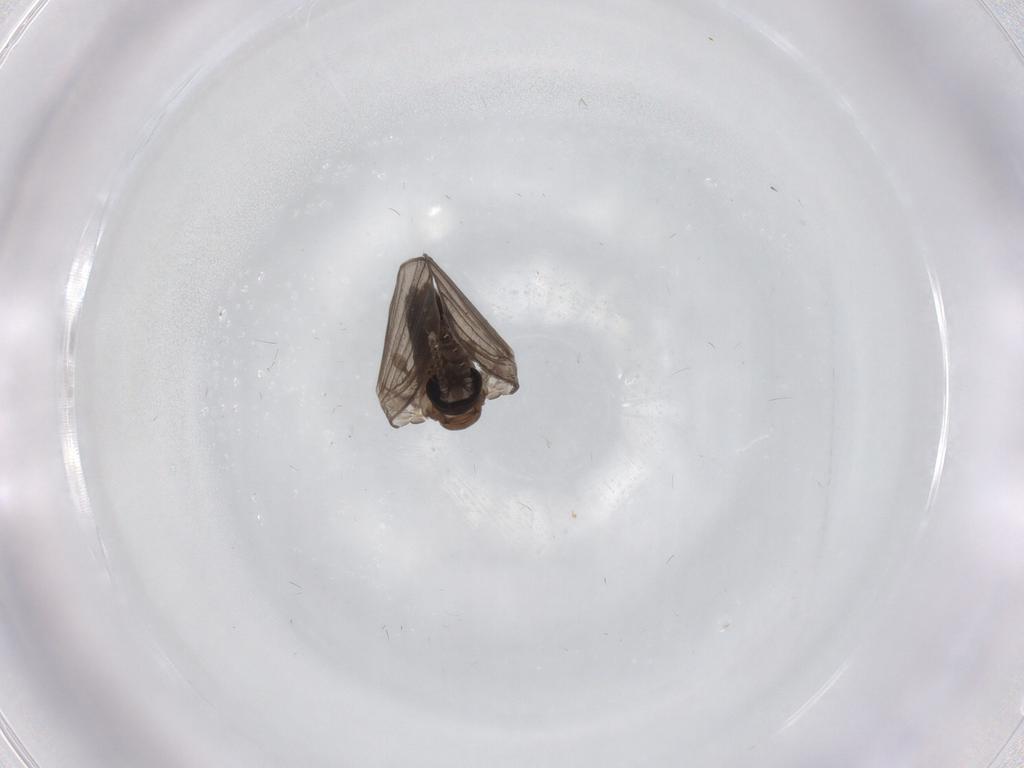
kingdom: Animalia
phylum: Arthropoda
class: Insecta
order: Diptera
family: Psychodidae
